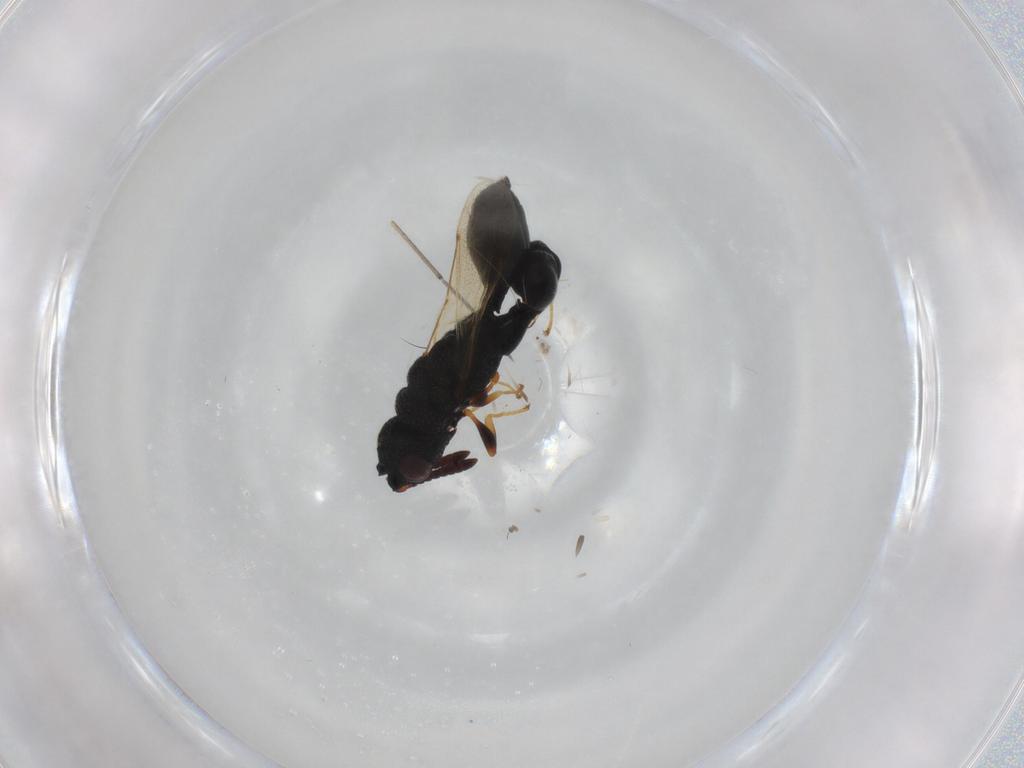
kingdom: Animalia
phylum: Arthropoda
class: Insecta
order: Hymenoptera
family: Chalcididae
